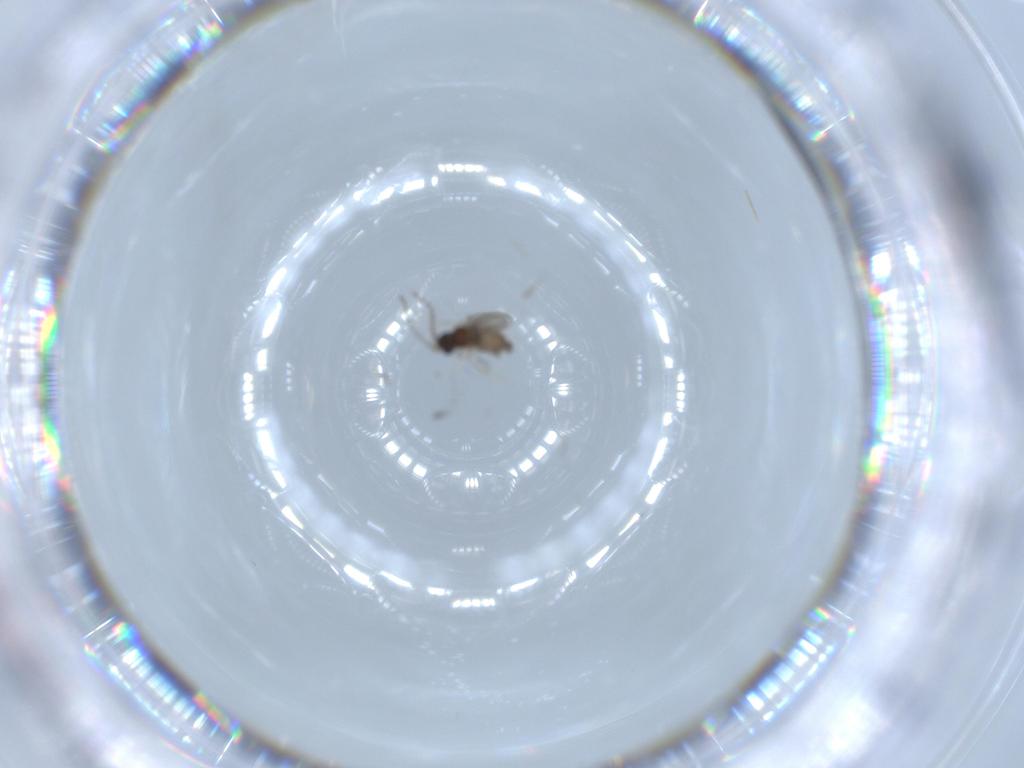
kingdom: Animalia
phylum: Arthropoda
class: Insecta
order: Diptera
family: Cecidomyiidae
